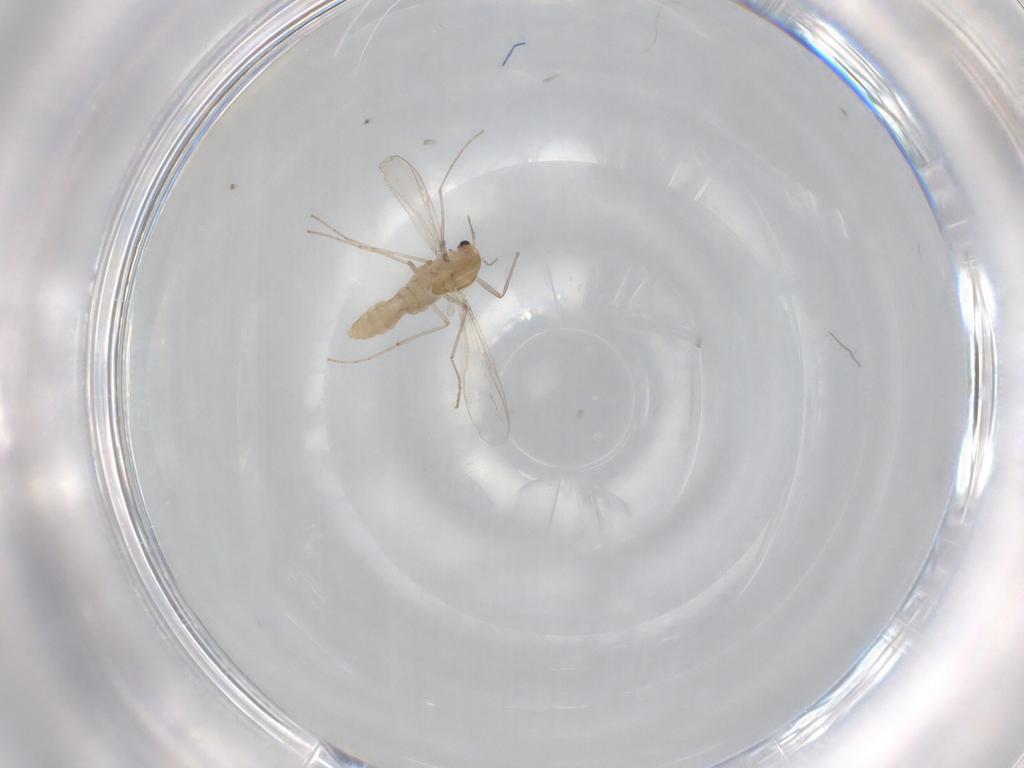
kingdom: Animalia
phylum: Arthropoda
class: Insecta
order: Diptera
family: Chironomidae
